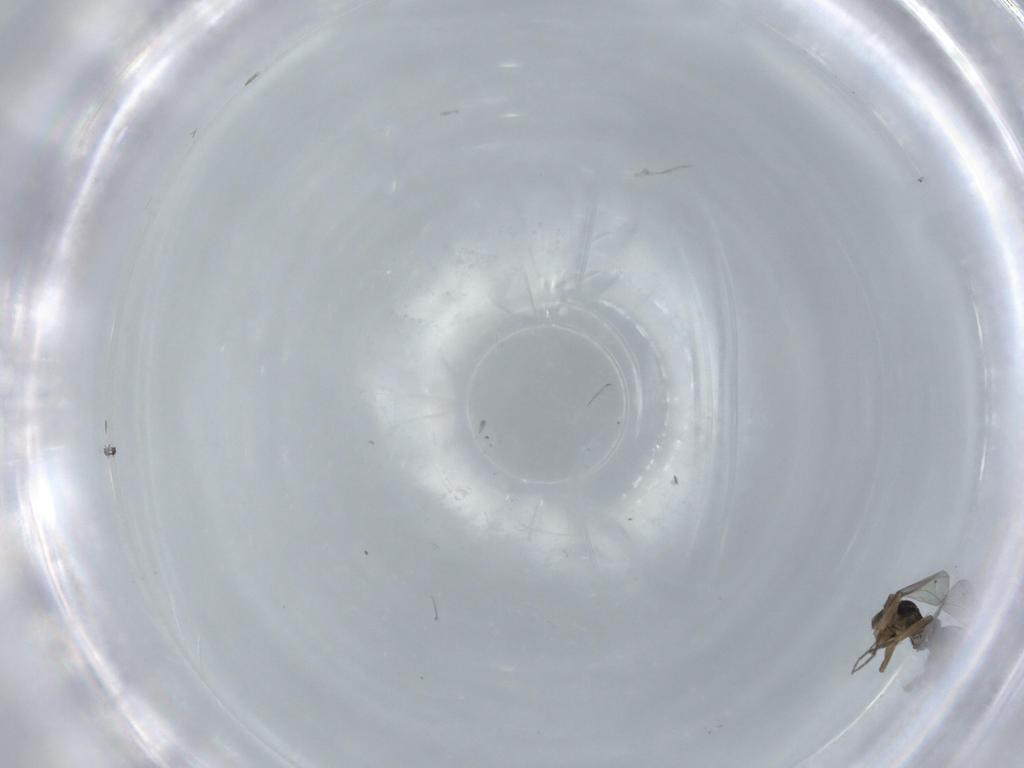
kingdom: Animalia
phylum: Arthropoda
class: Insecta
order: Diptera
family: Phoridae
